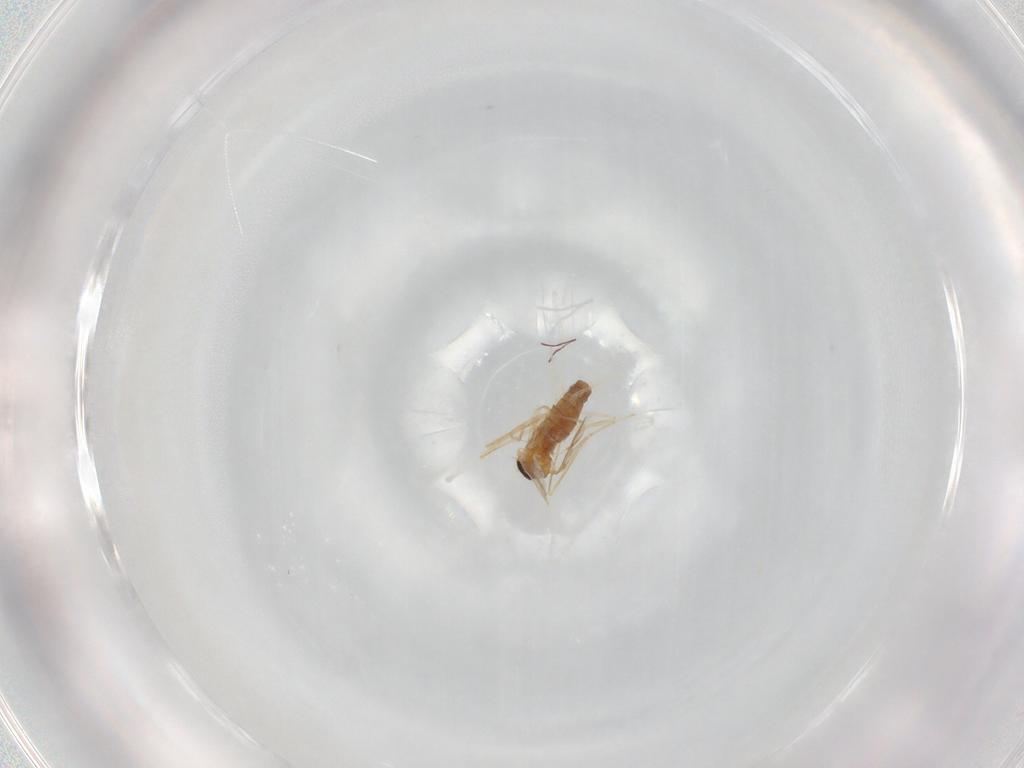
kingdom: Animalia
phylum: Arthropoda
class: Insecta
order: Diptera
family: Cecidomyiidae
